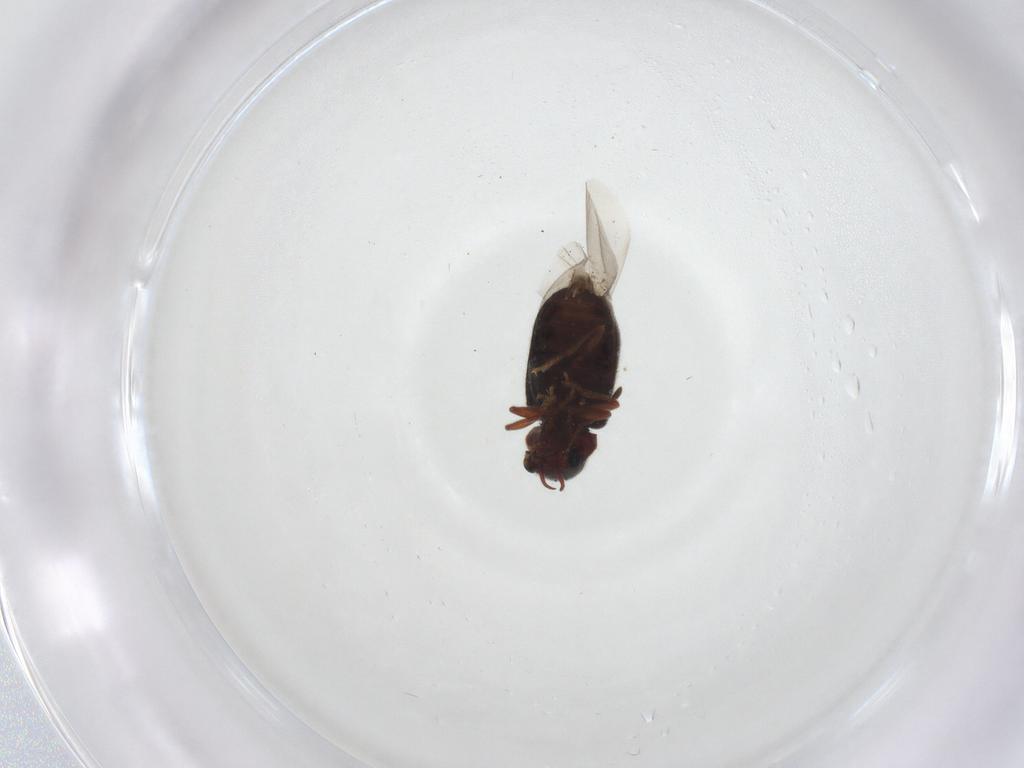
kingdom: Animalia
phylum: Arthropoda
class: Insecta
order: Coleoptera
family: Ptinidae
